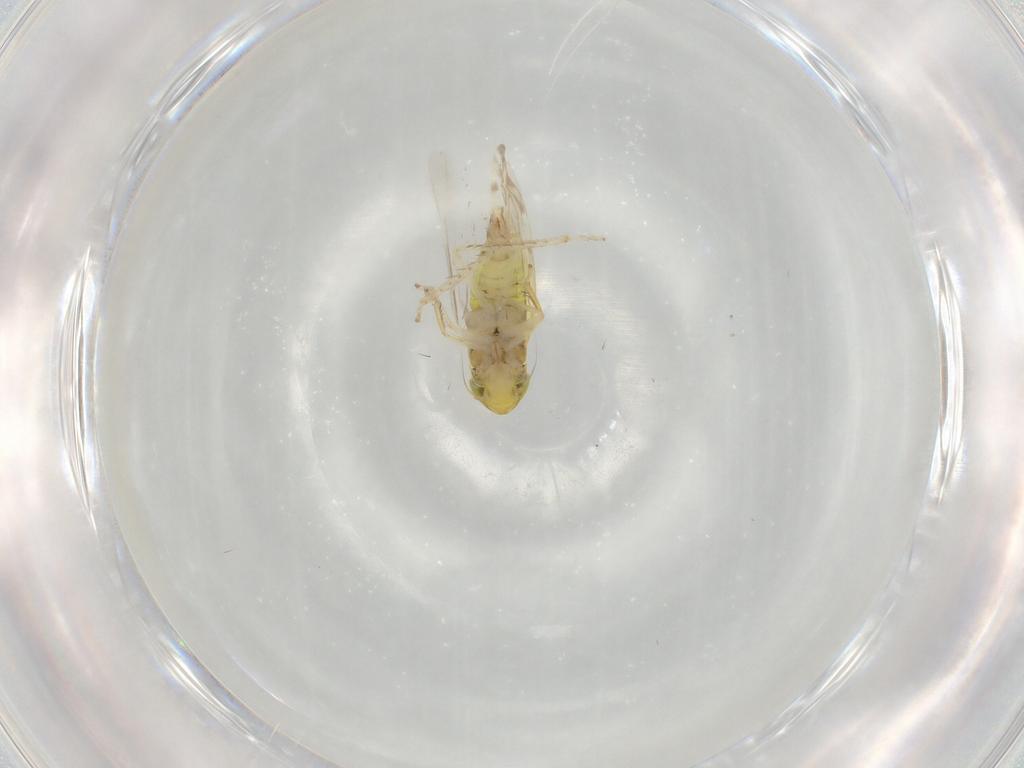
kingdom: Animalia
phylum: Arthropoda
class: Insecta
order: Hemiptera
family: Cicadellidae
